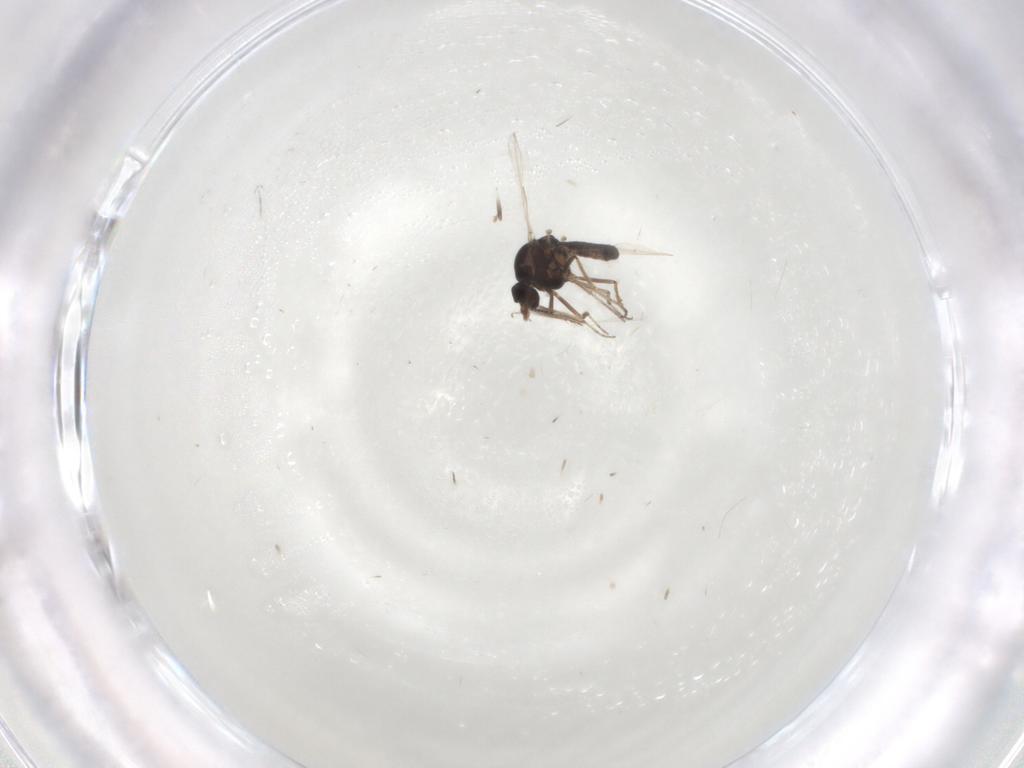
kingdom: Animalia
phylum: Arthropoda
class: Insecta
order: Diptera
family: Ceratopogonidae
